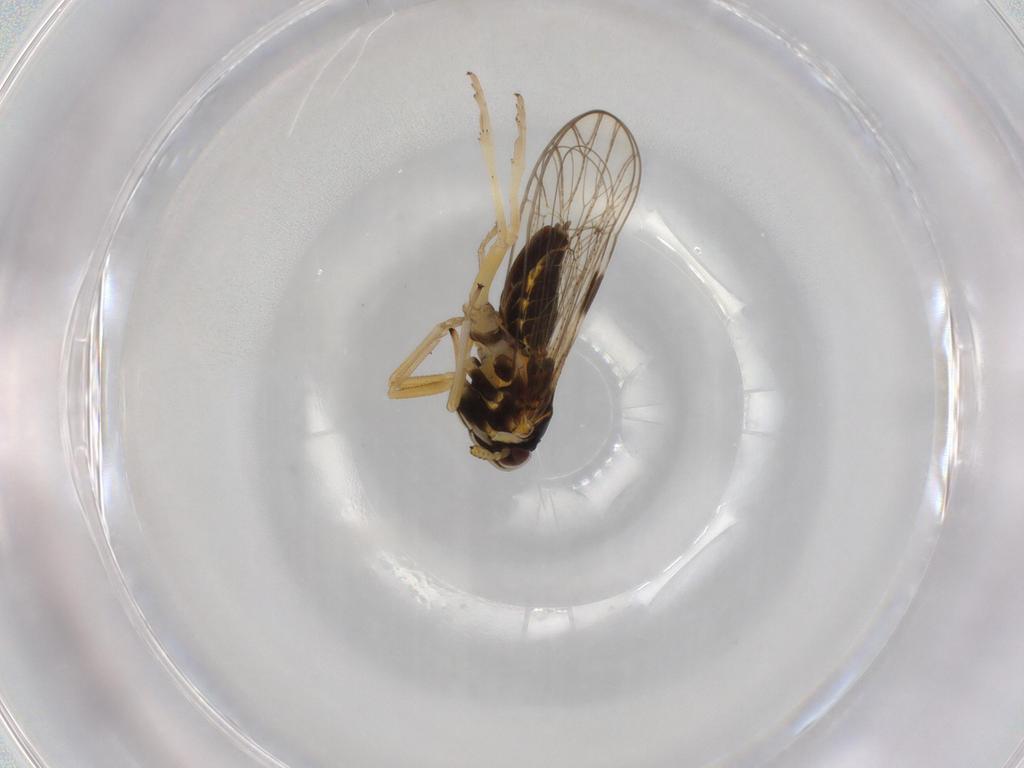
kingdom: Animalia
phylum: Arthropoda
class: Insecta
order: Hemiptera
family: Cicadellidae
